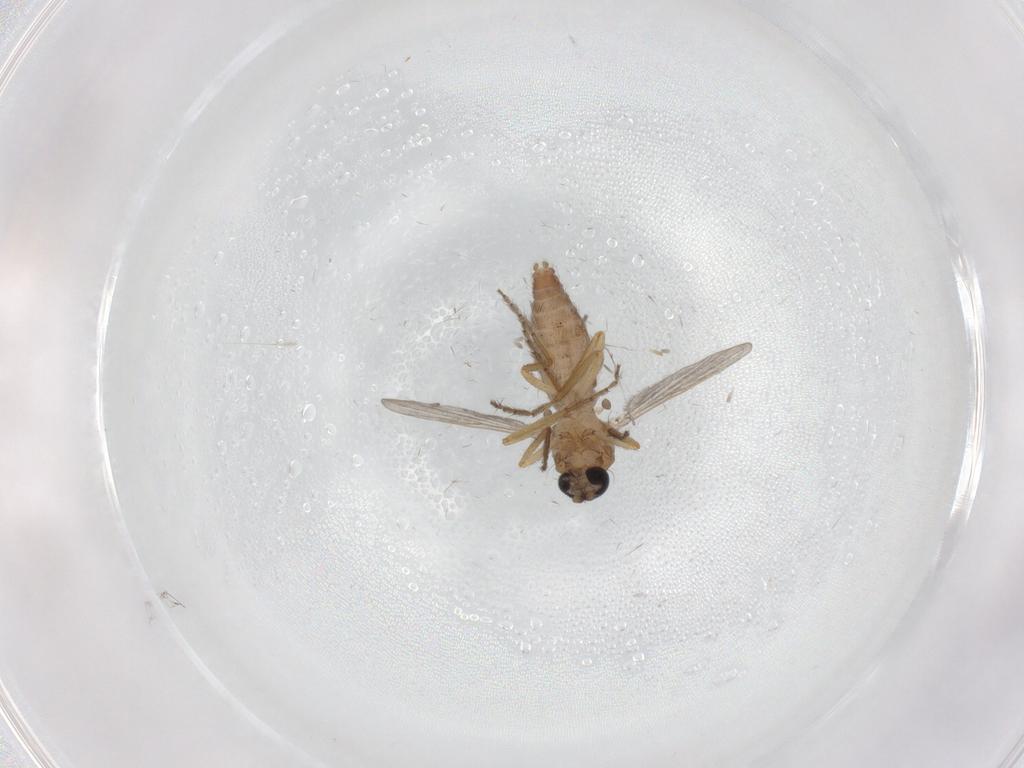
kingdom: Animalia
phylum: Arthropoda
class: Insecta
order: Diptera
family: Ceratopogonidae
